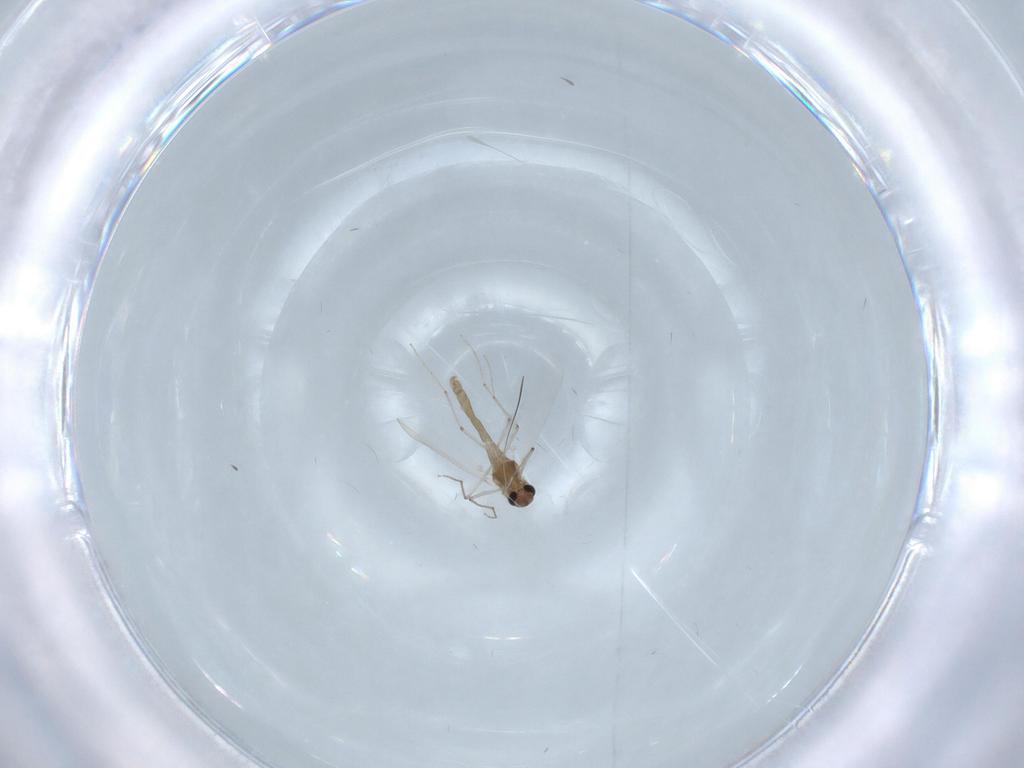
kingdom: Animalia
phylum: Arthropoda
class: Insecta
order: Diptera
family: Chironomidae
